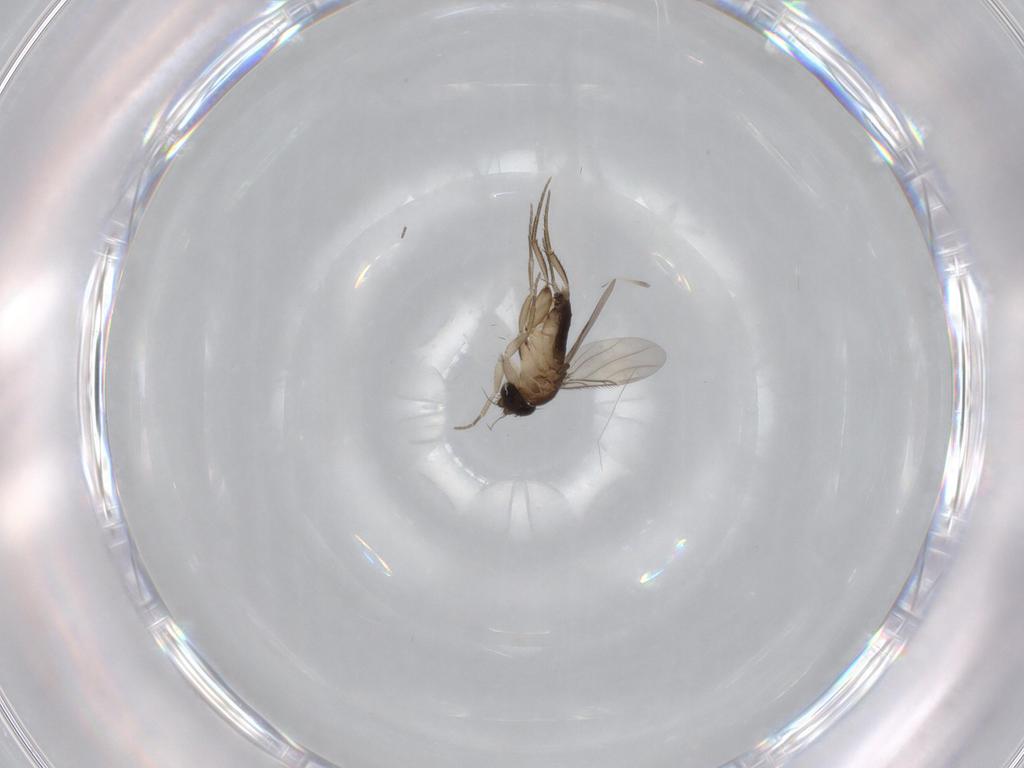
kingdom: Animalia
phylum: Arthropoda
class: Insecta
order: Diptera
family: Phoridae
